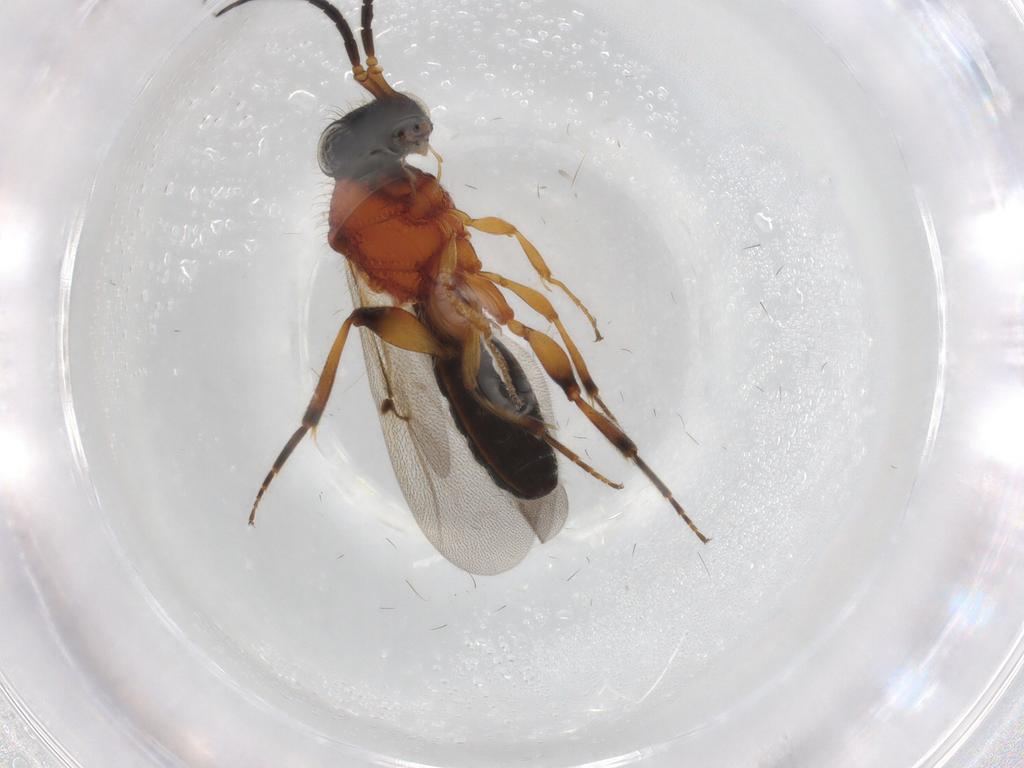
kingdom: Animalia
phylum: Arthropoda
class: Insecta
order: Hymenoptera
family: Scelionidae
